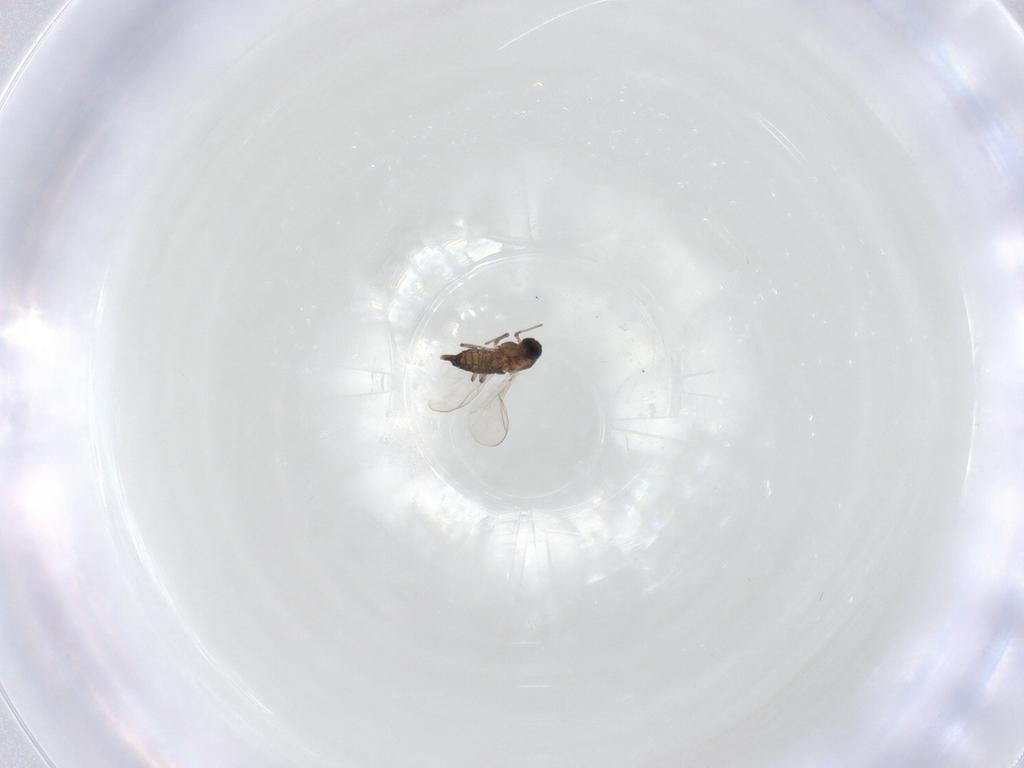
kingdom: Animalia
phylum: Arthropoda
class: Insecta
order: Diptera
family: Chironomidae
